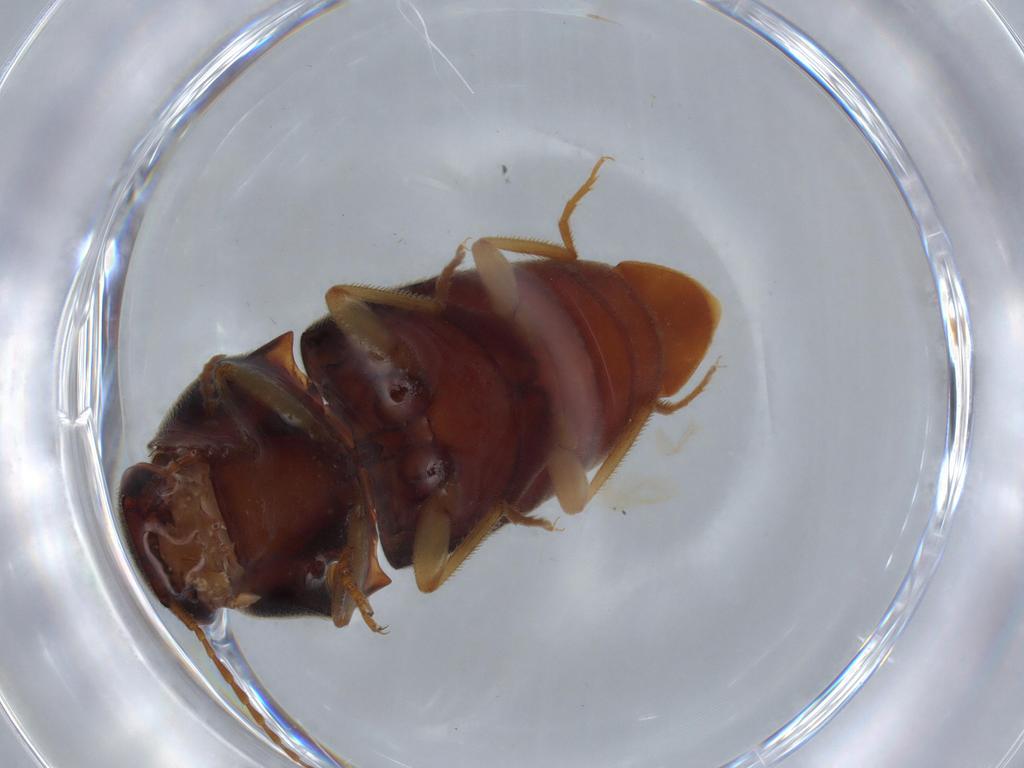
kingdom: Animalia
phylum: Arthropoda
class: Insecta
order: Coleoptera
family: Elateridae
